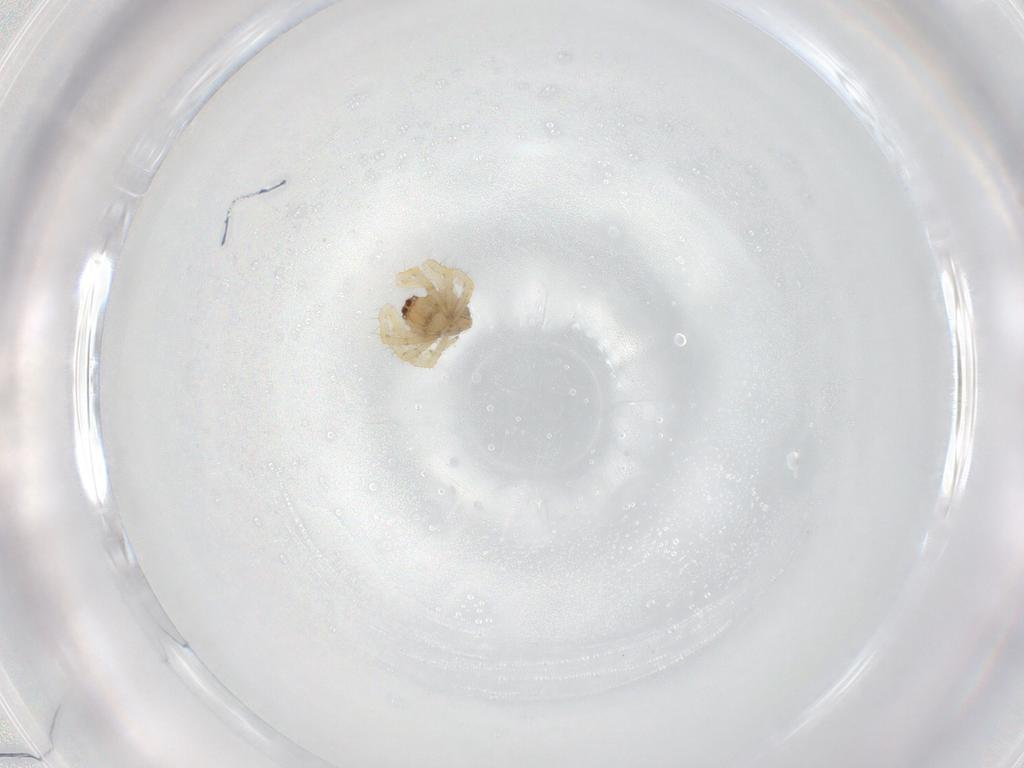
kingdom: Animalia
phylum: Arthropoda
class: Arachnida
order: Araneae
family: Theridiidae
